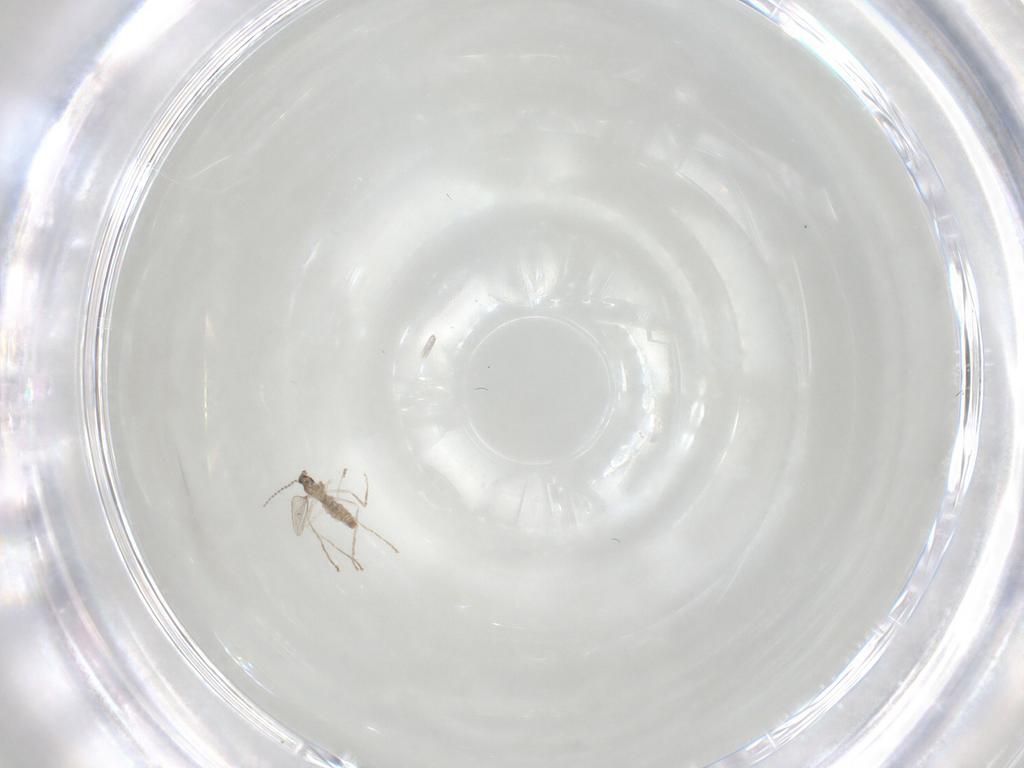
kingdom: Animalia
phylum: Arthropoda
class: Insecta
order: Diptera
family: Cecidomyiidae
